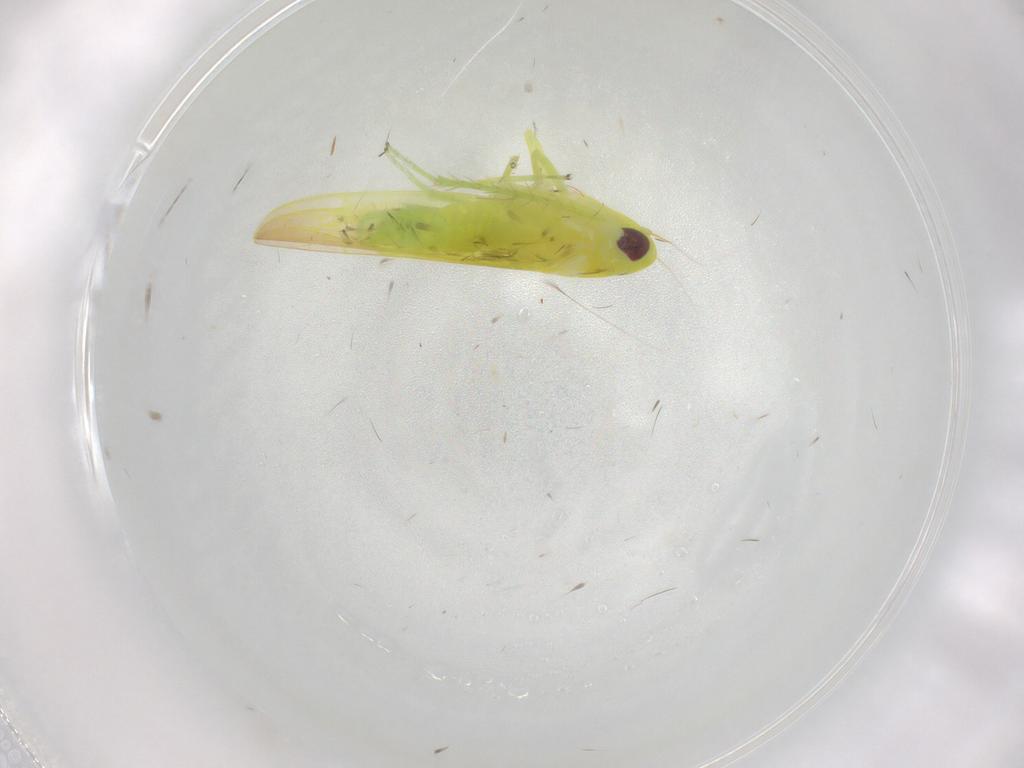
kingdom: Animalia
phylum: Arthropoda
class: Insecta
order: Hemiptera
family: Cicadellidae
